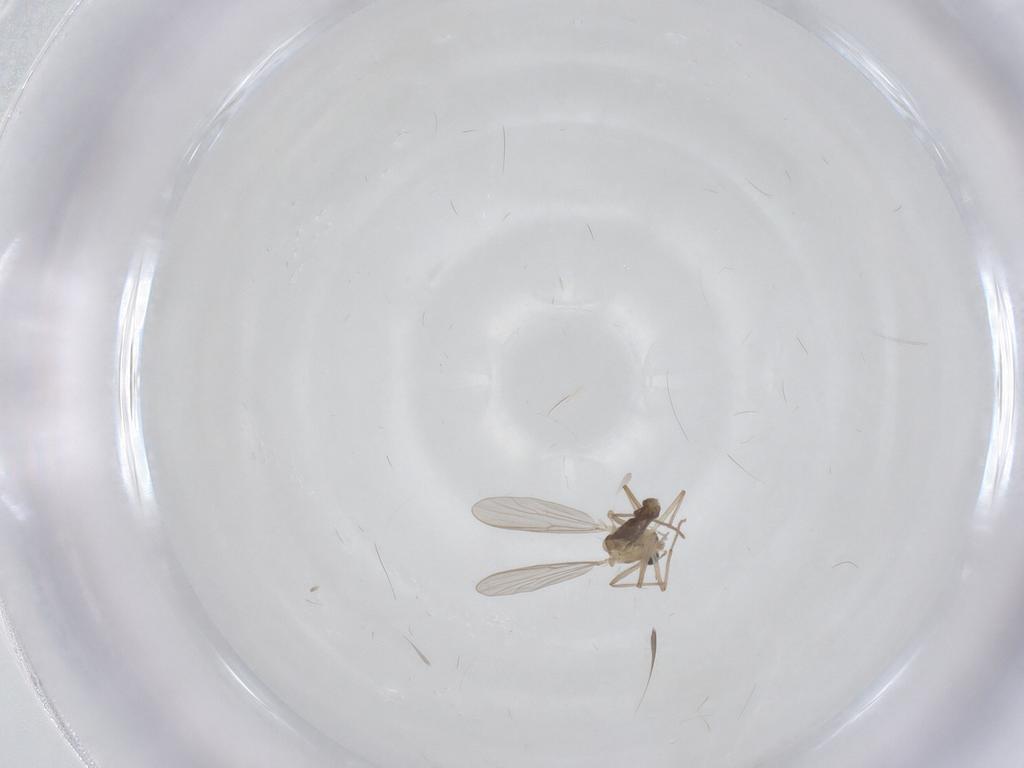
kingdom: Animalia
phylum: Arthropoda
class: Insecta
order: Diptera
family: Chironomidae
